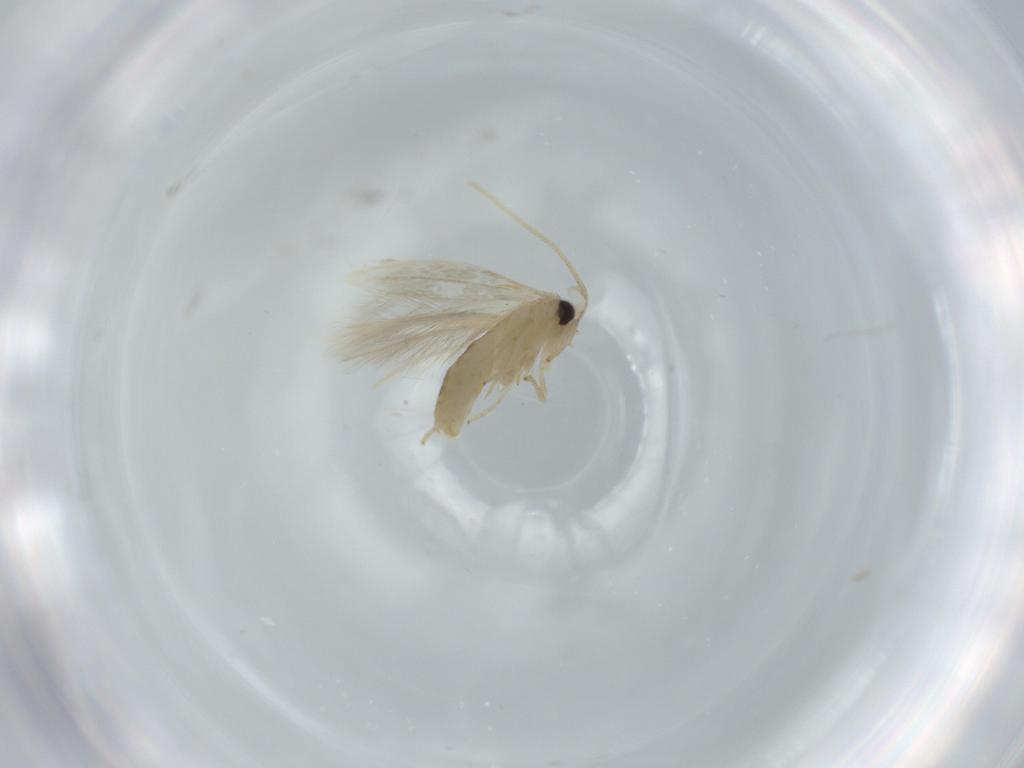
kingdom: Animalia
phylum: Arthropoda
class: Insecta
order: Lepidoptera
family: Opostegidae
